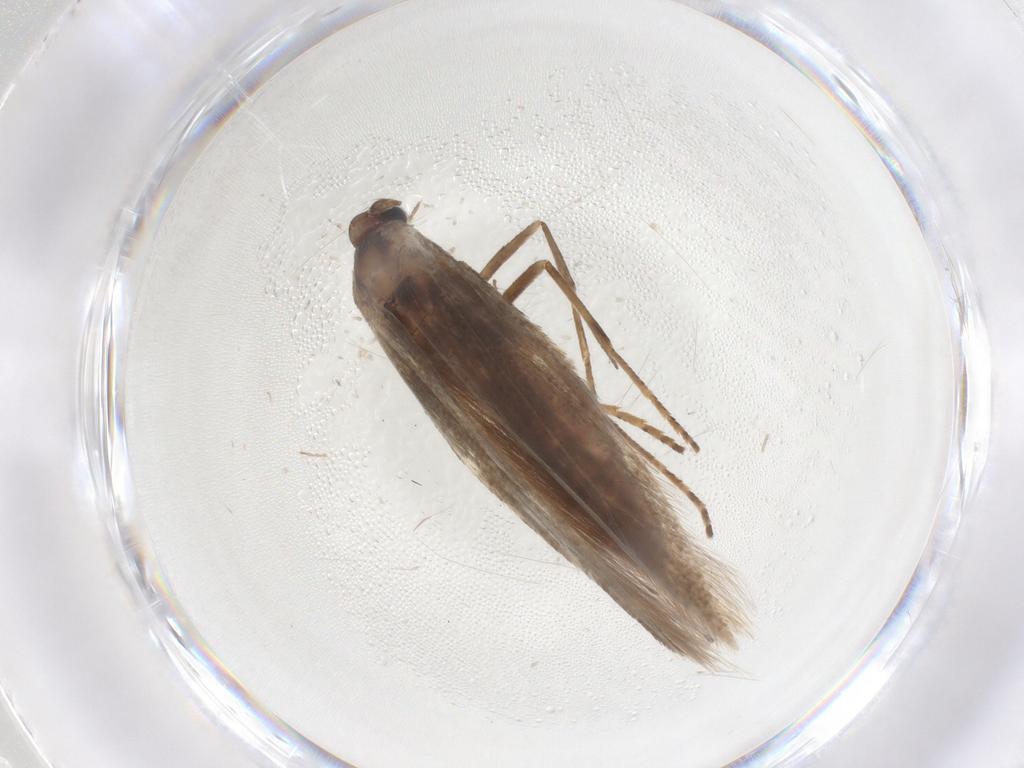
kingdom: Animalia
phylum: Arthropoda
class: Insecta
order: Lepidoptera
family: Bedelliidae
